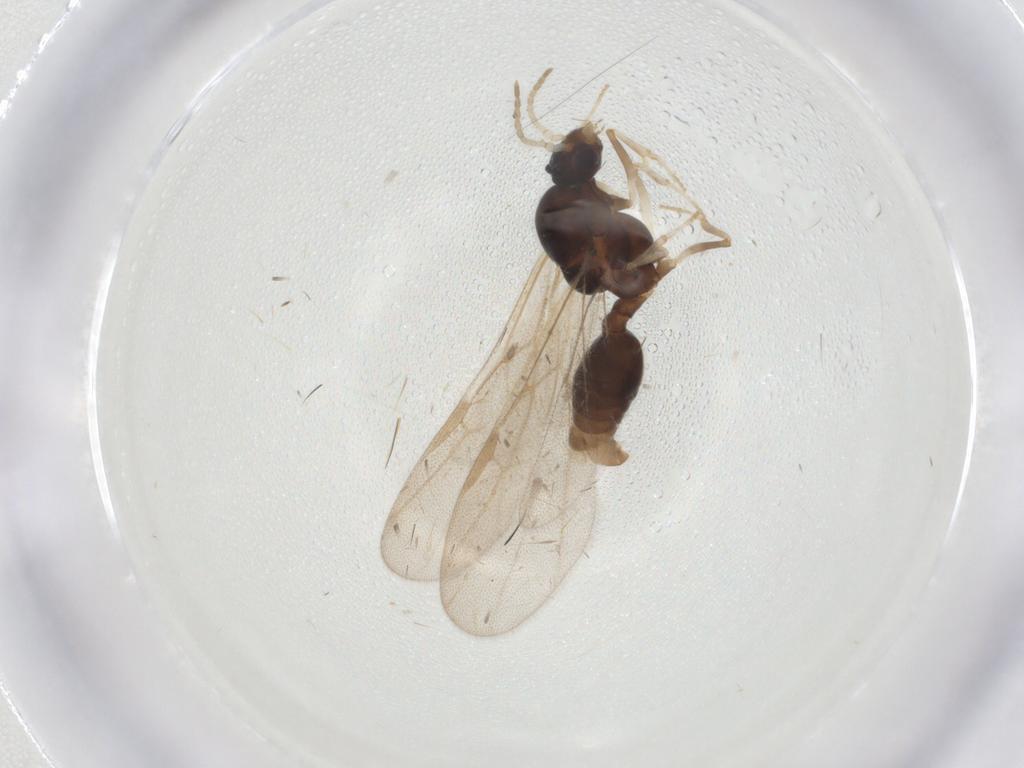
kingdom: Animalia
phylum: Arthropoda
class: Insecta
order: Hymenoptera
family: Formicidae
